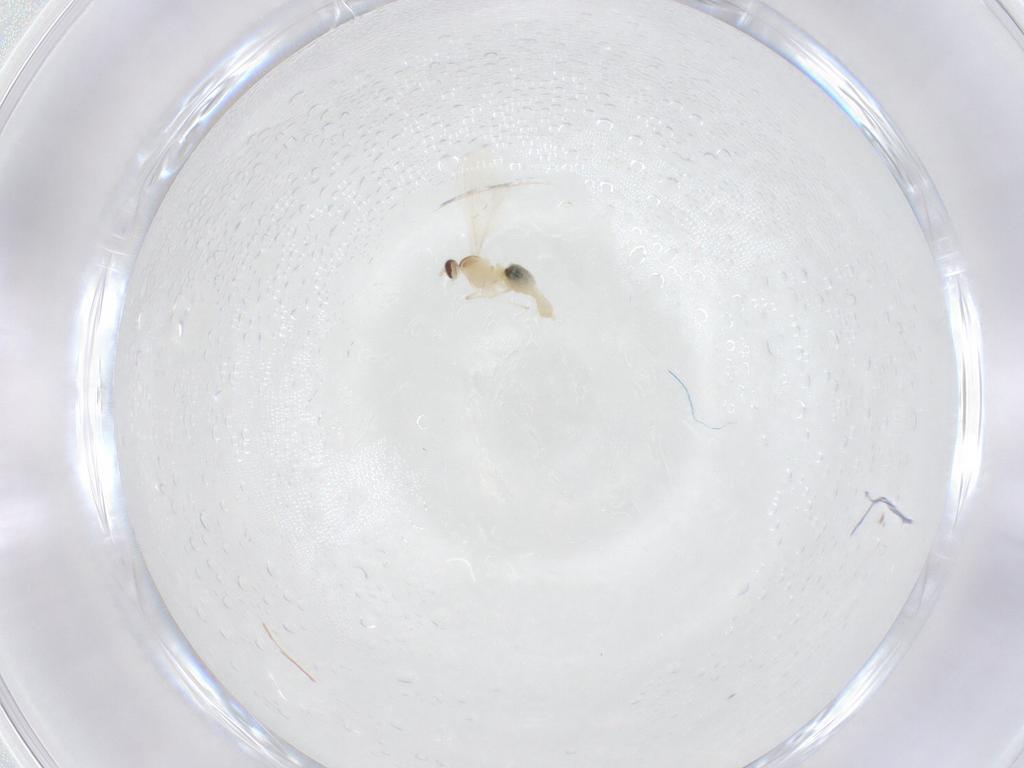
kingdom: Animalia
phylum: Arthropoda
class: Insecta
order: Diptera
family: Cecidomyiidae
